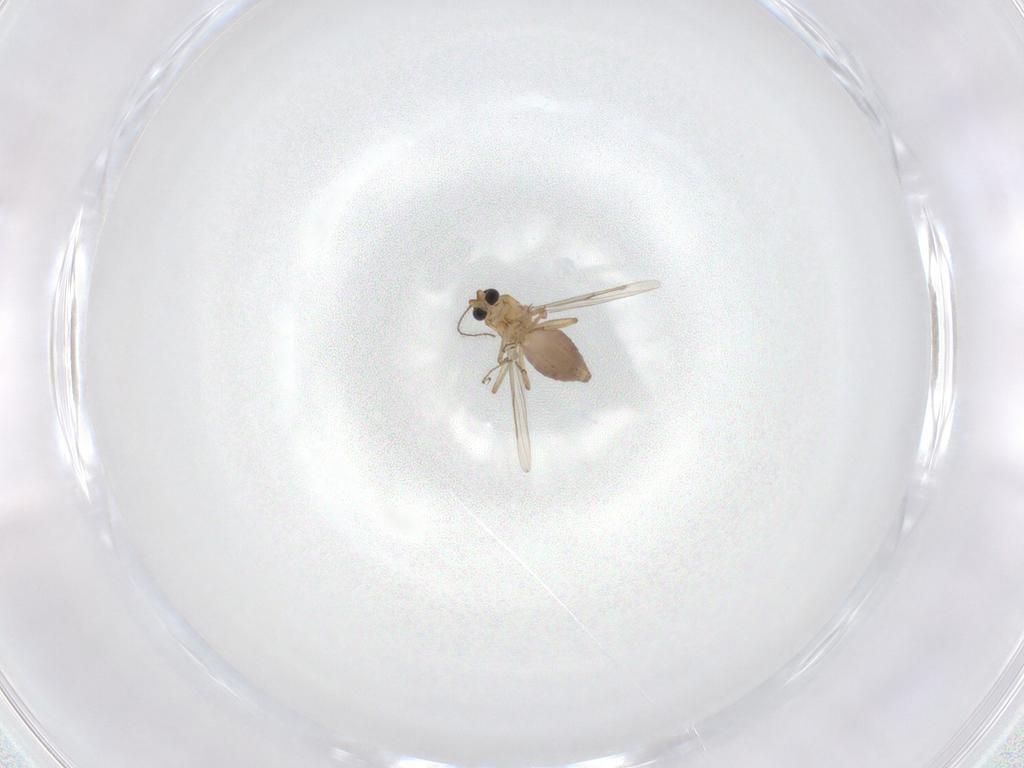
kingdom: Animalia
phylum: Arthropoda
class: Insecta
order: Diptera
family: Ceratopogonidae
